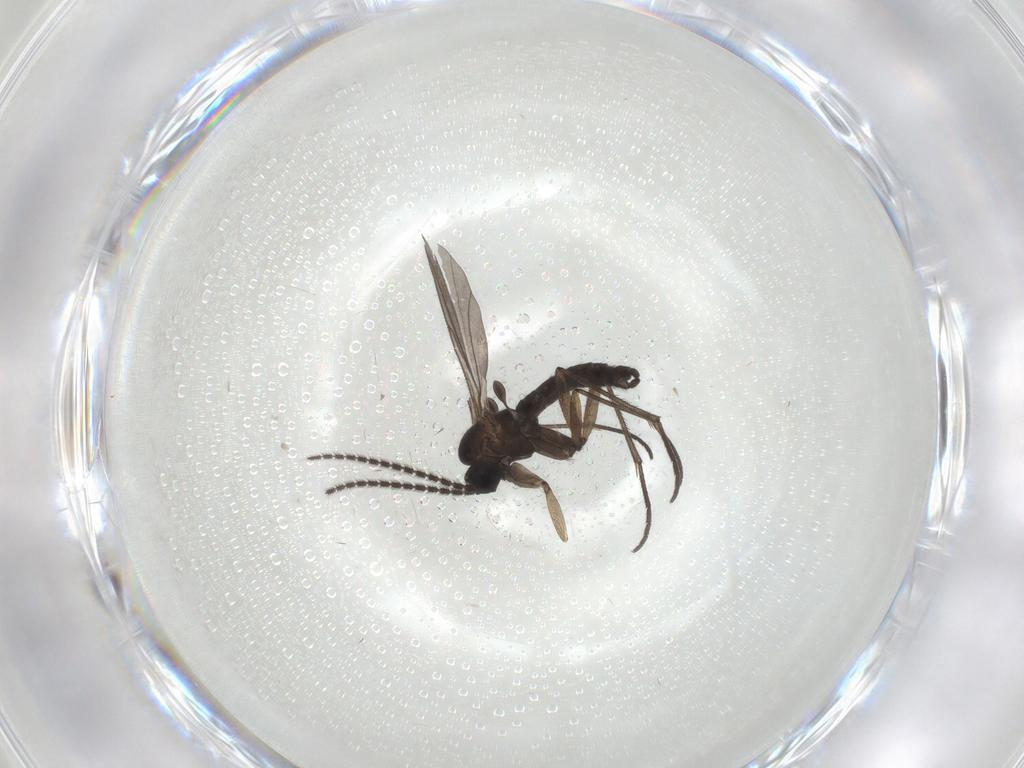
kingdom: Animalia
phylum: Arthropoda
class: Insecta
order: Diptera
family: Sciaridae
